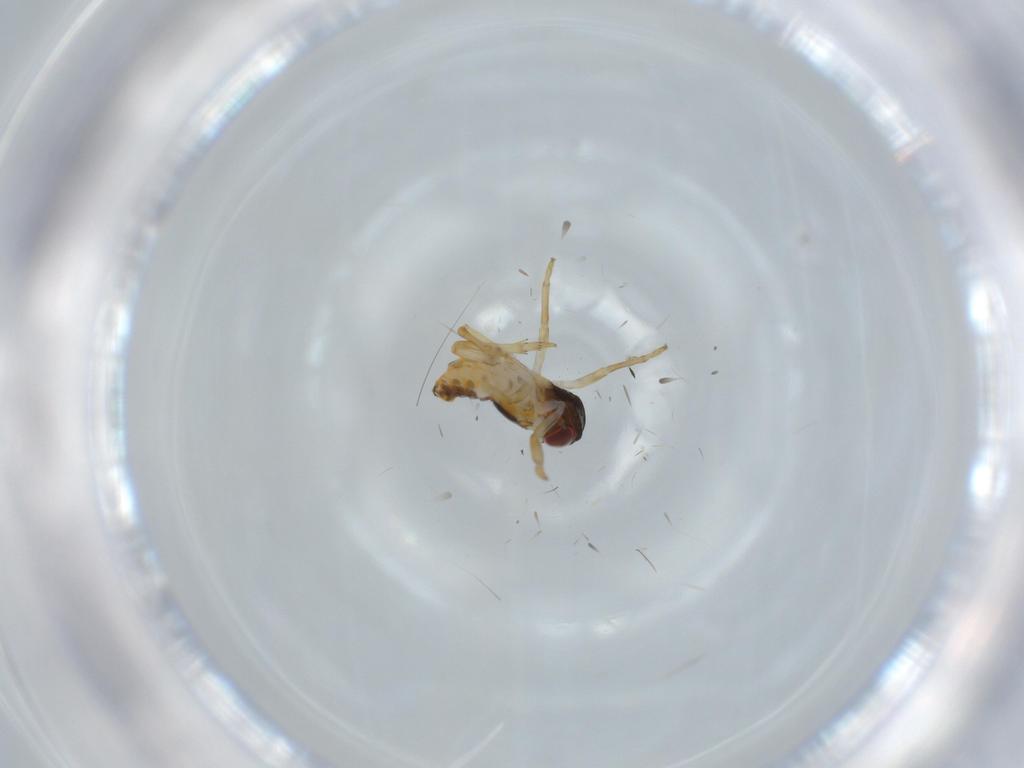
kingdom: Animalia
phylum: Arthropoda
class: Insecta
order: Hemiptera
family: Issidae
